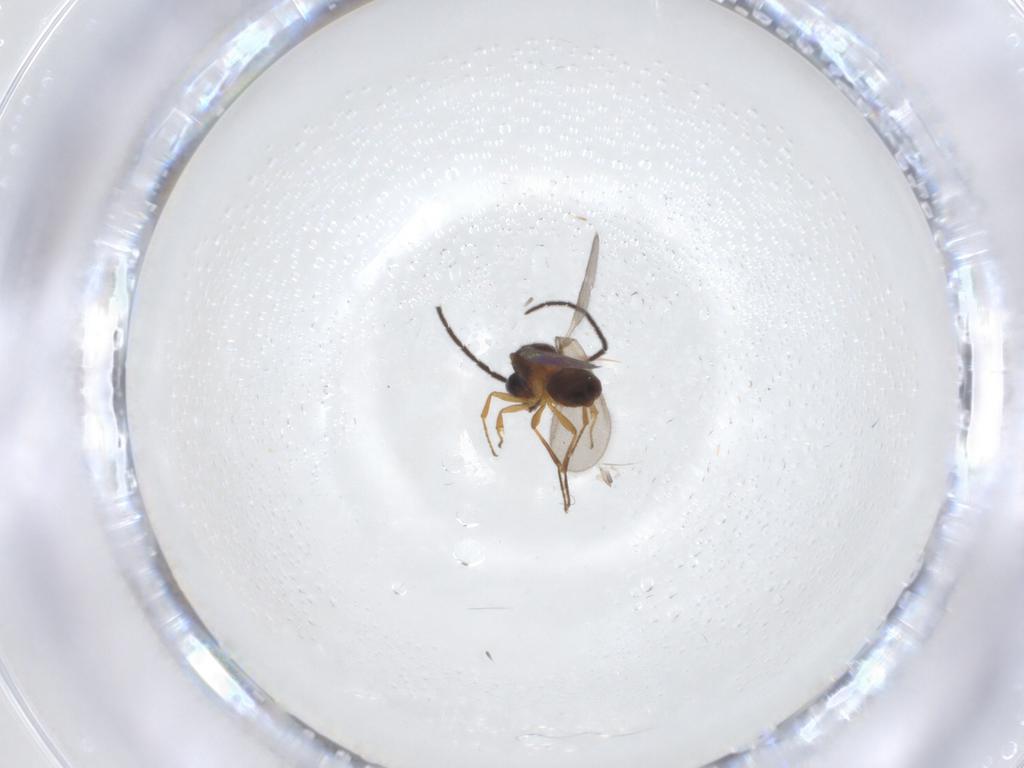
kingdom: Animalia
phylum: Arthropoda
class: Insecta
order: Hymenoptera
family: Scelionidae
